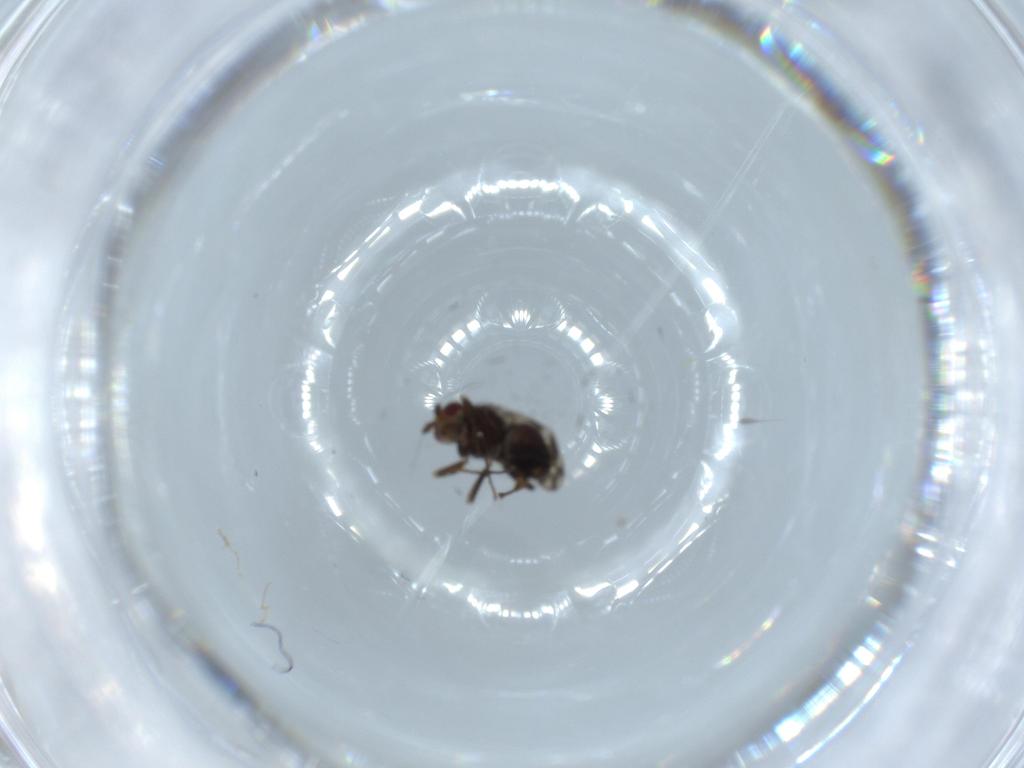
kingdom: Animalia
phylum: Arthropoda
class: Insecta
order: Diptera
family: Sphaeroceridae
